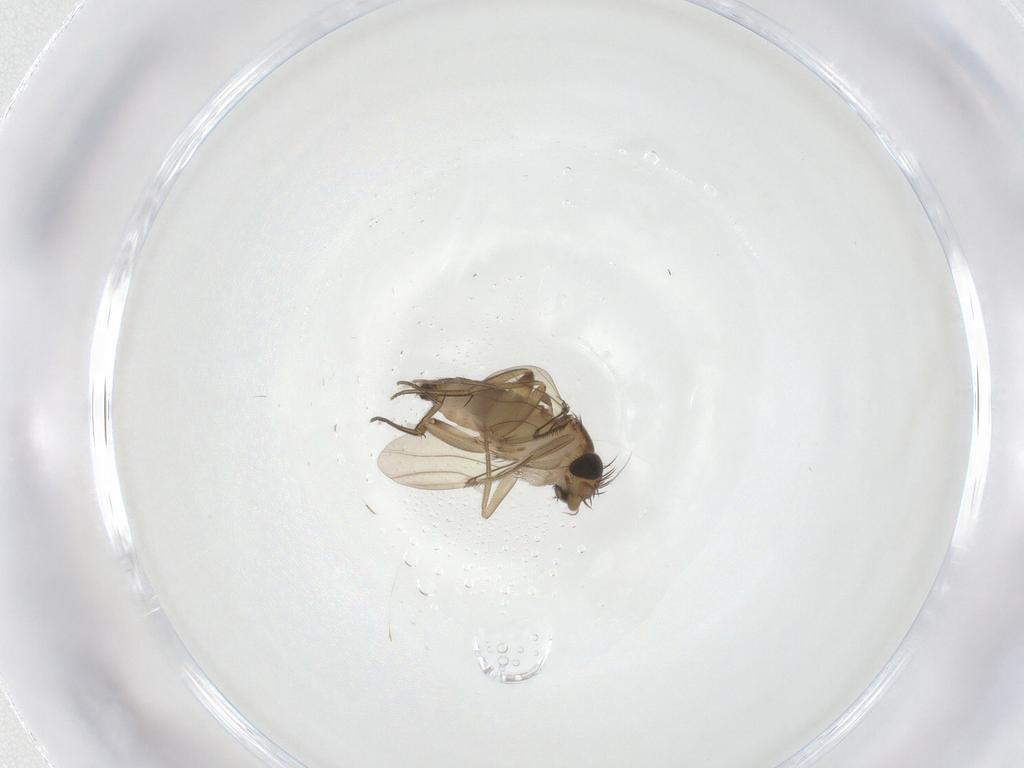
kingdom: Animalia
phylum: Arthropoda
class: Insecta
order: Diptera
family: Phoridae
